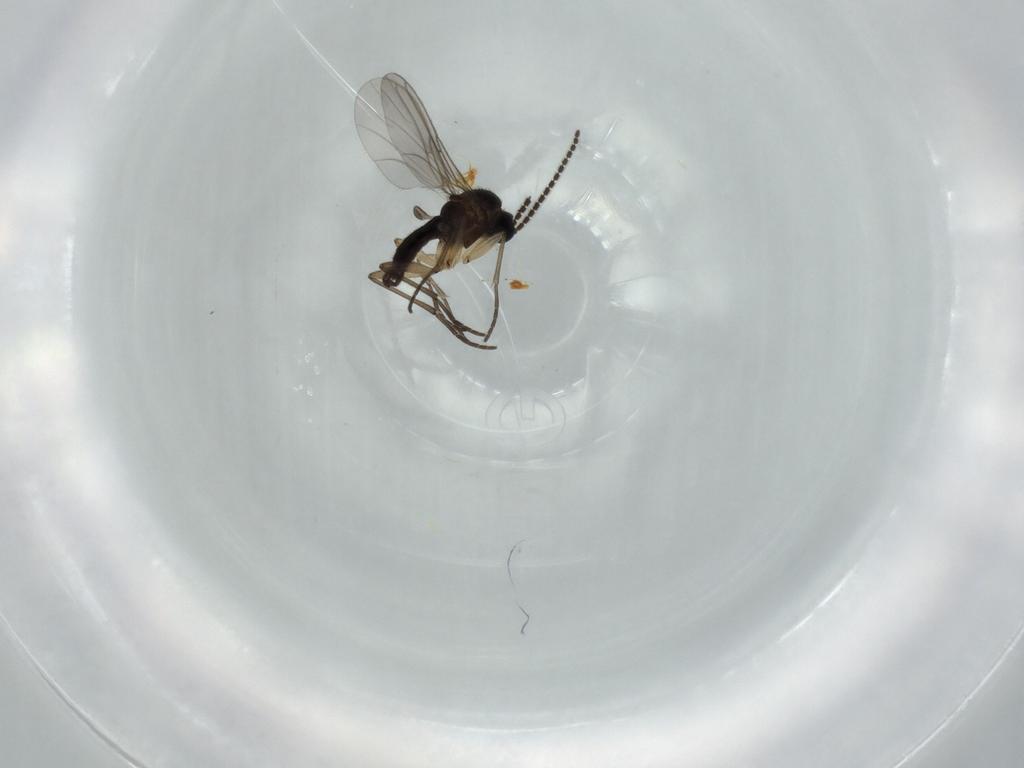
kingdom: Animalia
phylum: Arthropoda
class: Insecta
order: Diptera
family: Sciaridae
